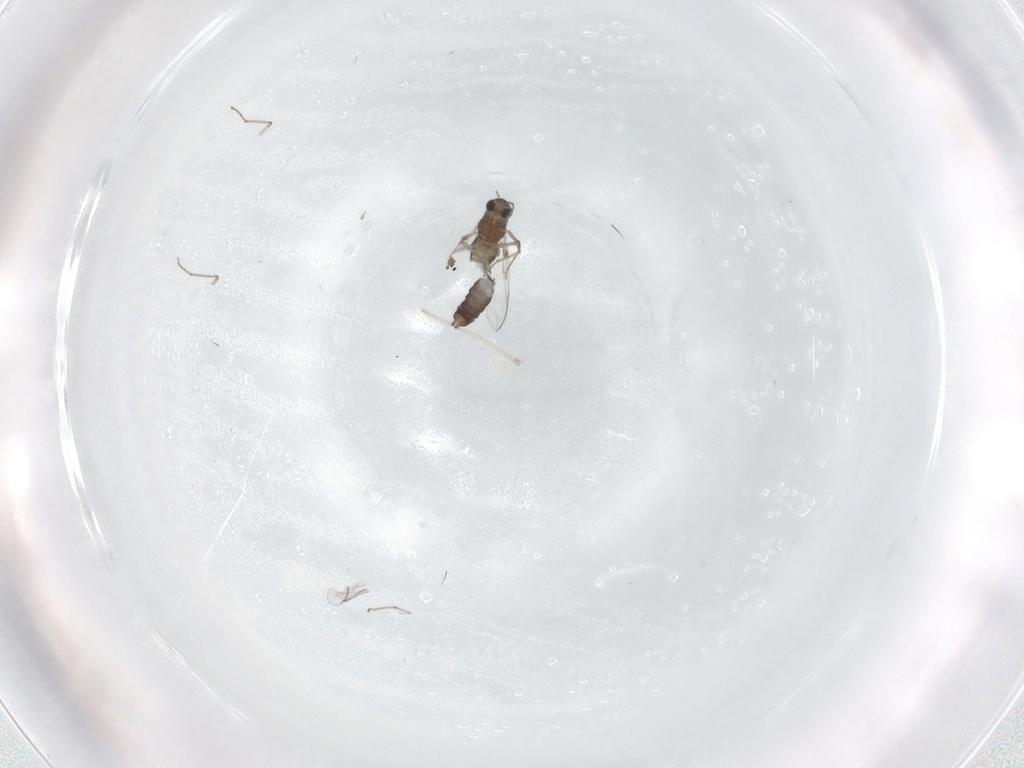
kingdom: Animalia
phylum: Arthropoda
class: Insecta
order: Diptera
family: Chironomidae
